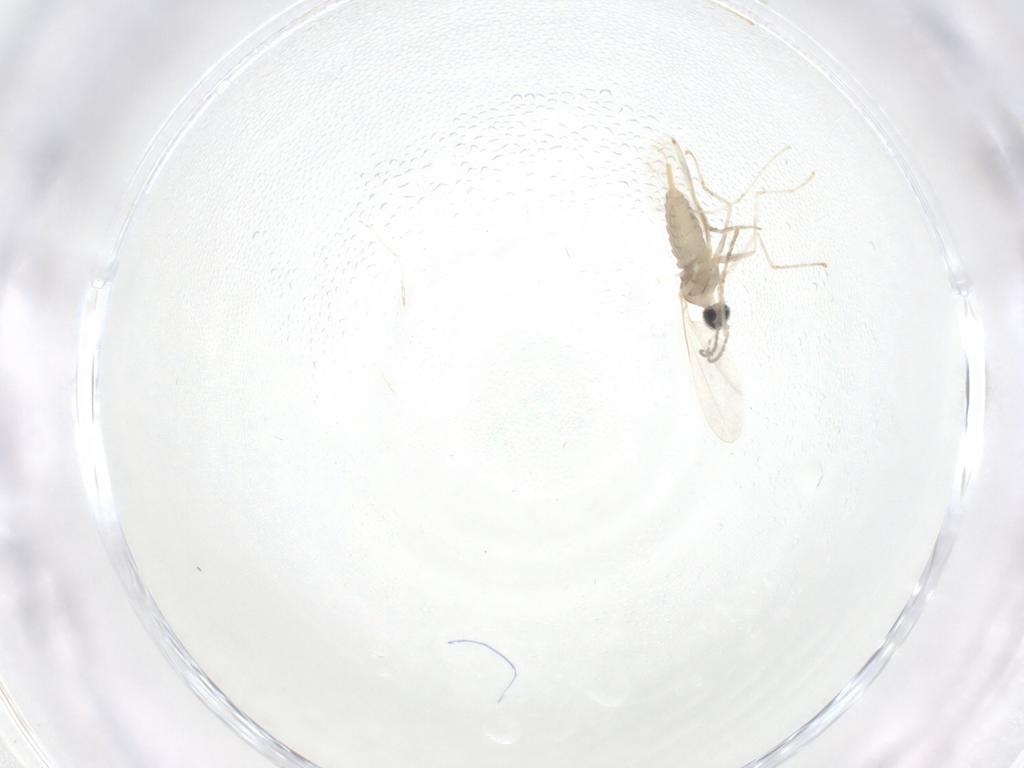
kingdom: Animalia
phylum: Arthropoda
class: Insecta
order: Diptera
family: Cecidomyiidae
